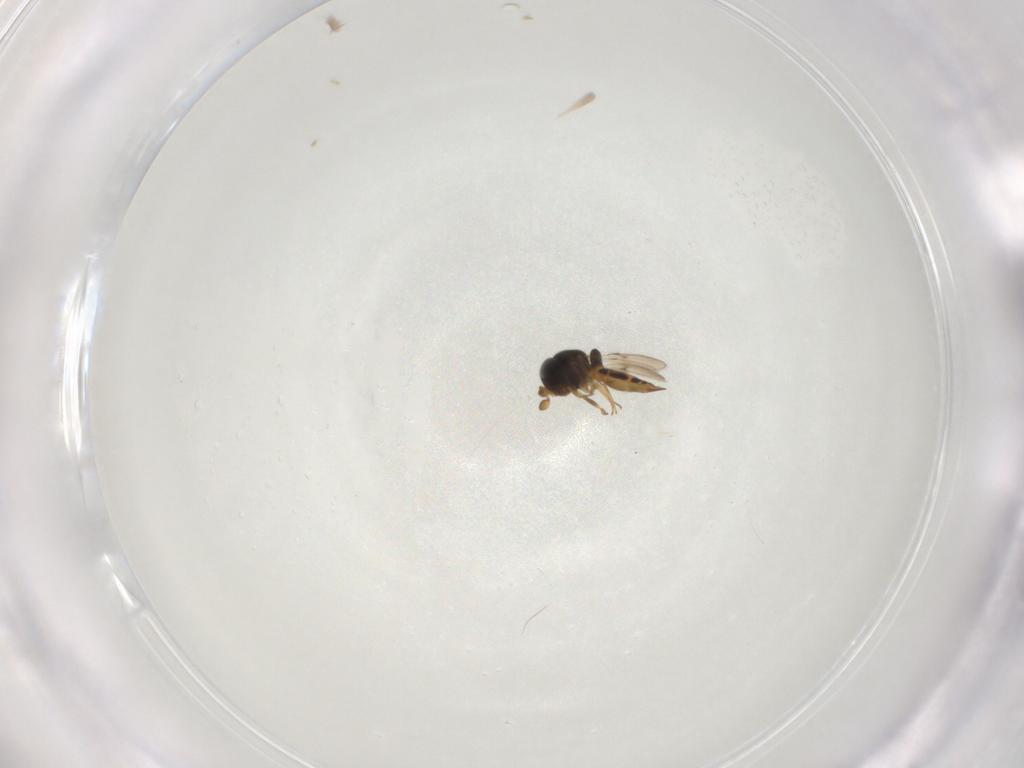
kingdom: Animalia
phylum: Arthropoda
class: Insecta
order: Hymenoptera
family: Scelionidae
